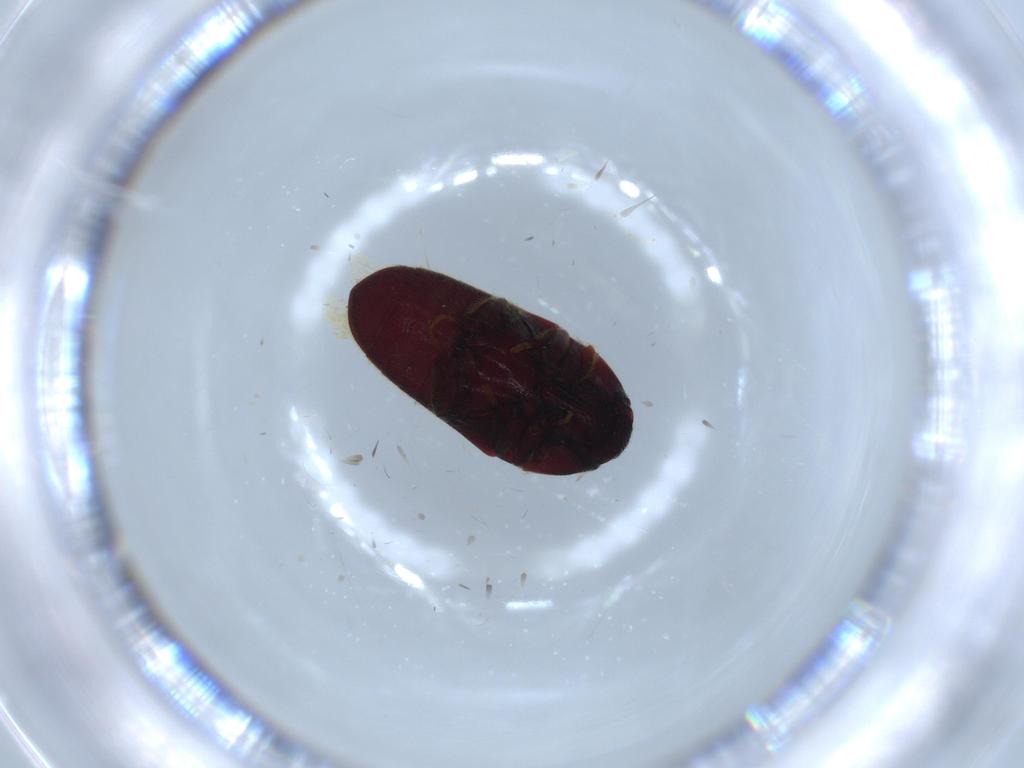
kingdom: Animalia
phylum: Arthropoda
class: Insecta
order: Coleoptera
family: Throscidae
